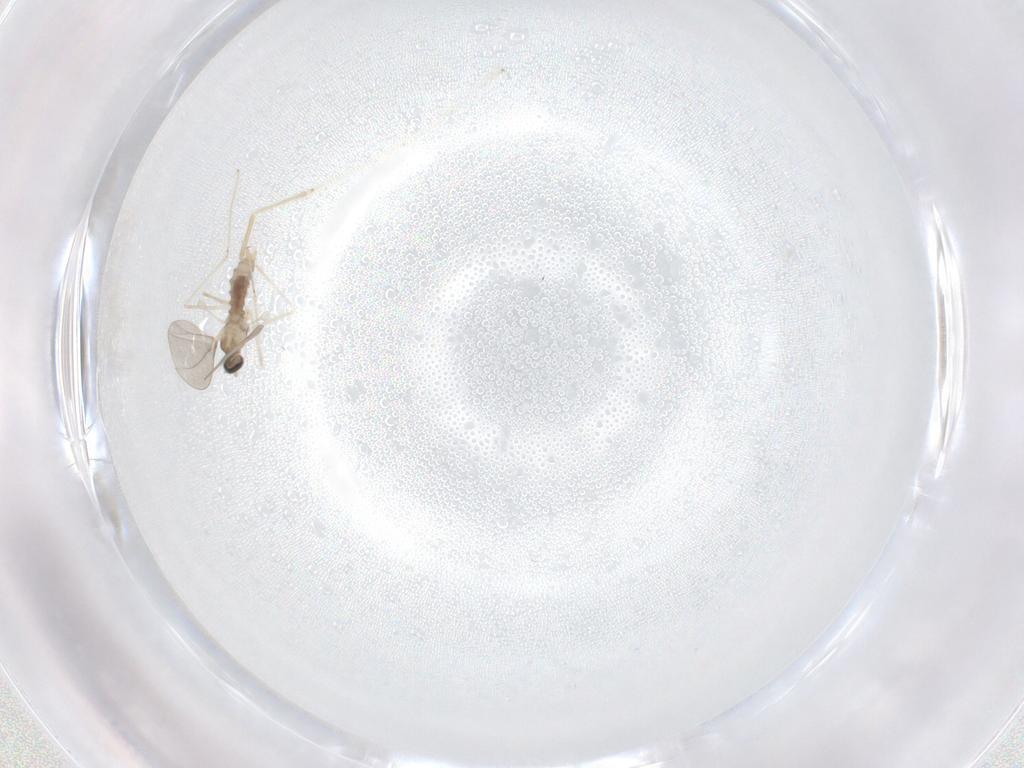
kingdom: Animalia
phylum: Arthropoda
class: Insecta
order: Diptera
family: Cecidomyiidae
